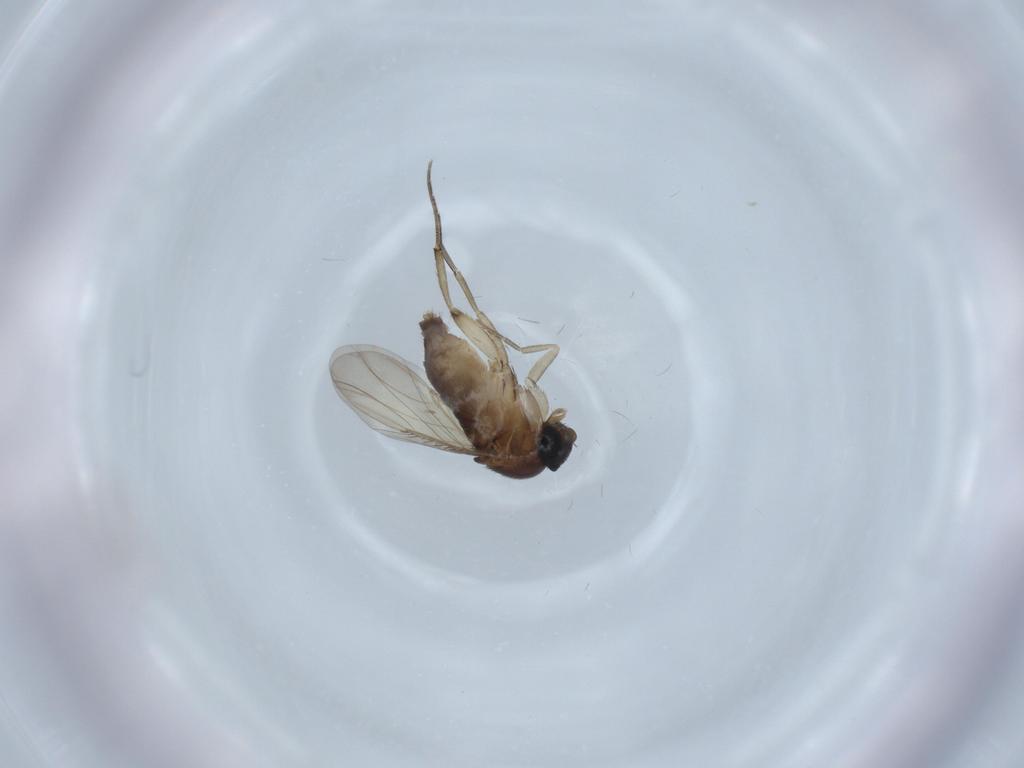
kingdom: Animalia
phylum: Arthropoda
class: Insecta
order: Diptera
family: Phoridae
